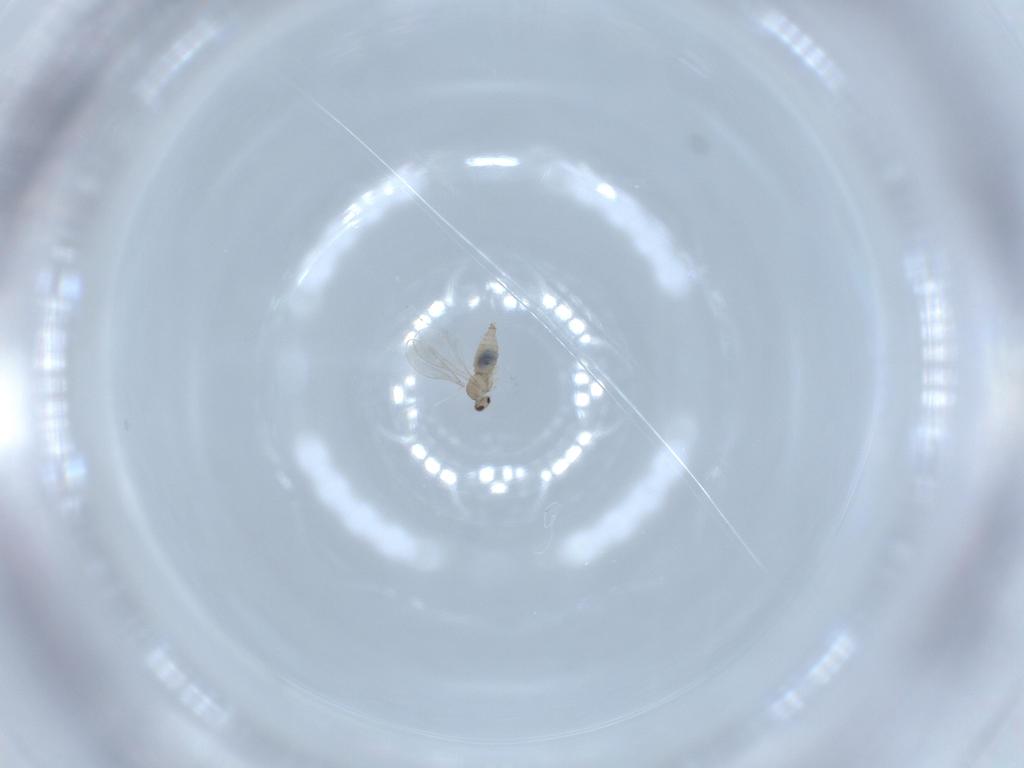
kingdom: Animalia
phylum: Arthropoda
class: Insecta
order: Diptera
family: Cecidomyiidae
